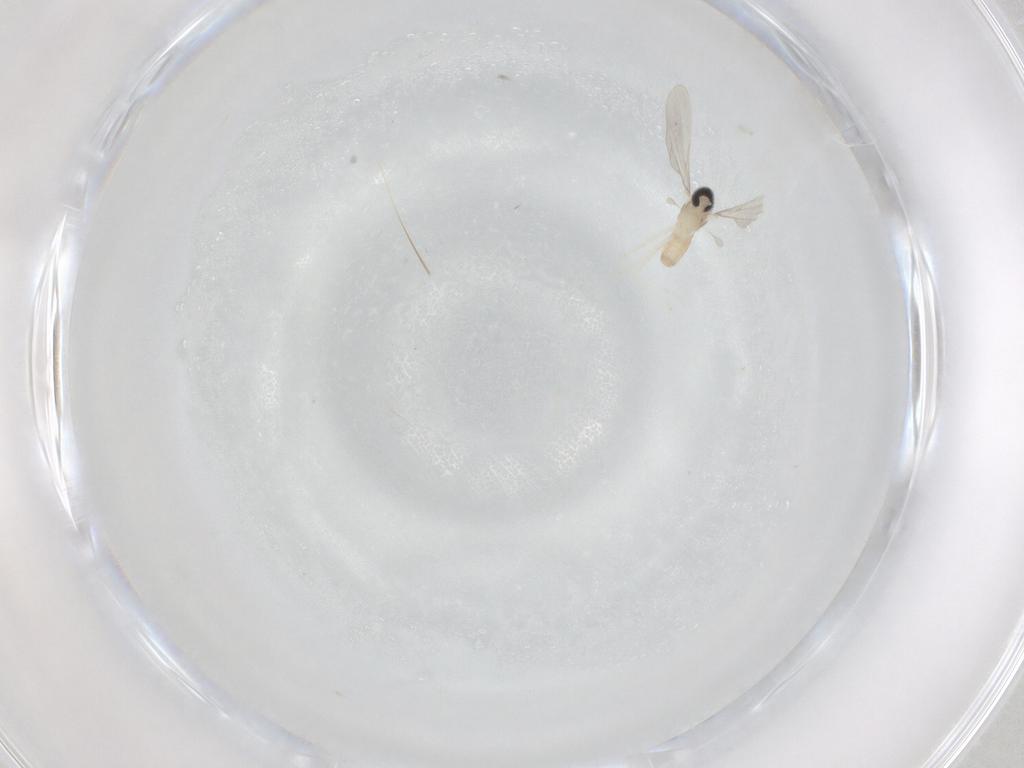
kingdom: Animalia
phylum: Arthropoda
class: Insecta
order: Diptera
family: Cecidomyiidae
